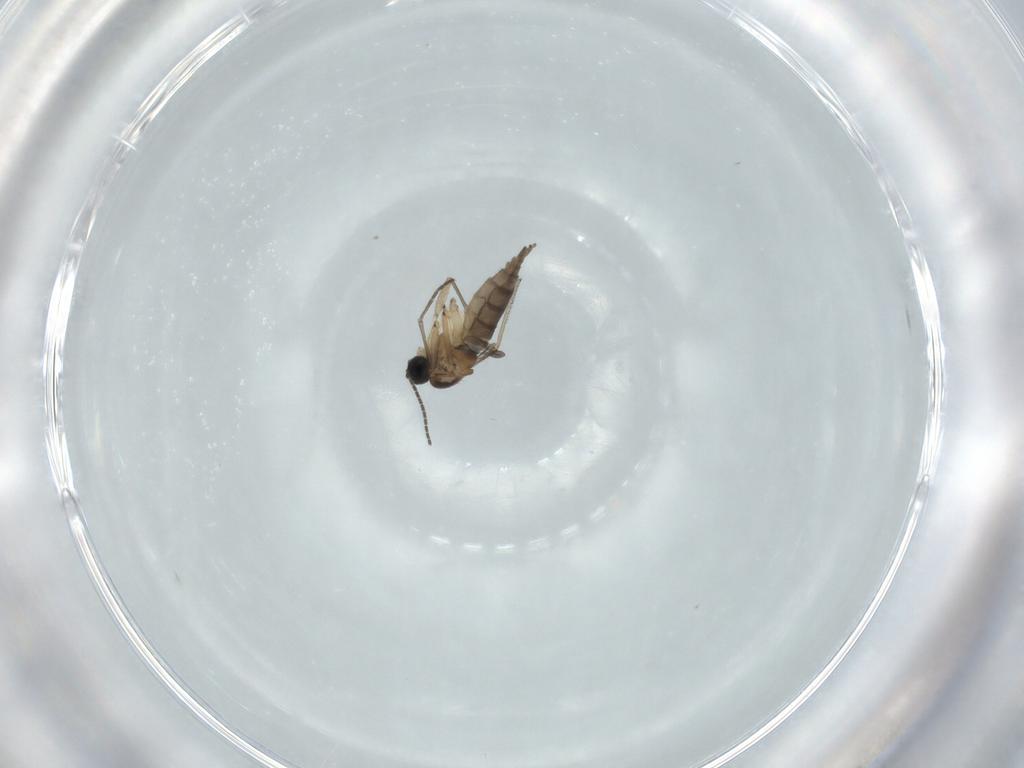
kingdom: Animalia
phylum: Arthropoda
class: Insecta
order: Diptera
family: Sciaridae
